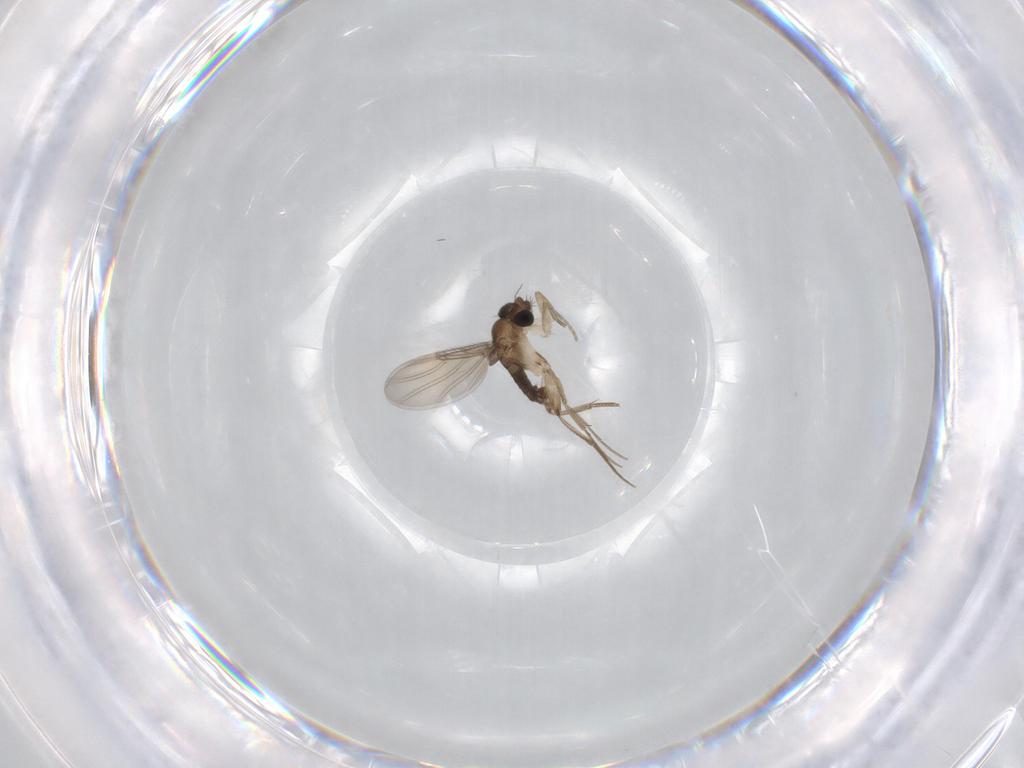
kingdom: Animalia
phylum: Arthropoda
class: Insecta
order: Diptera
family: Phoridae
